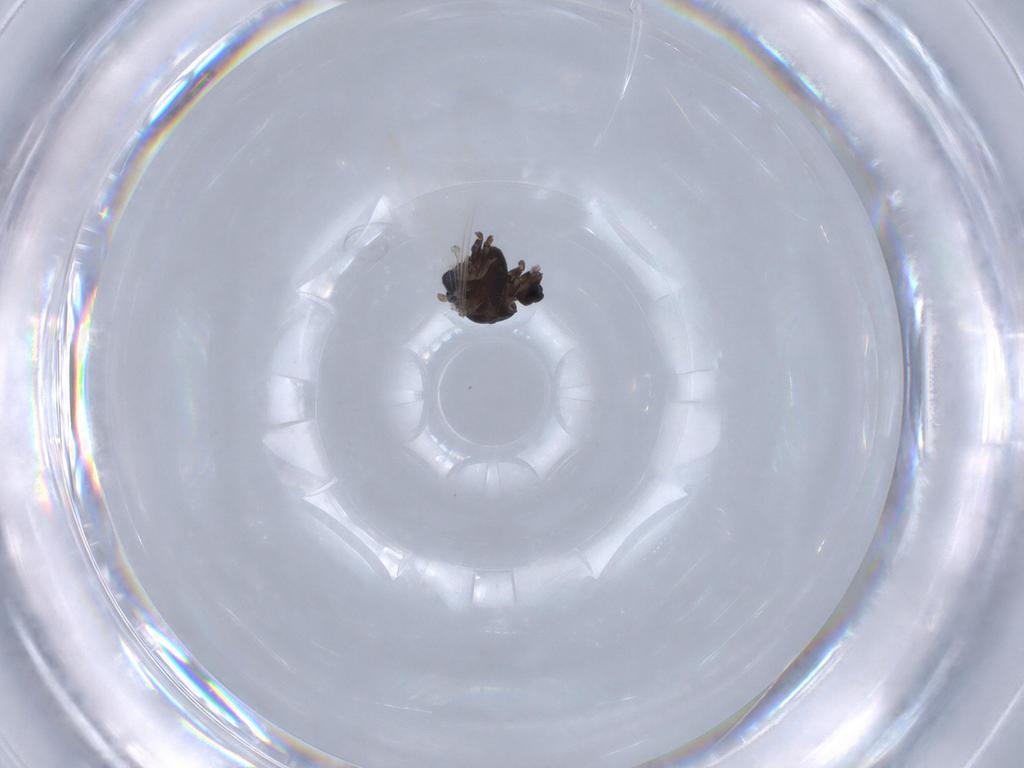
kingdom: Animalia
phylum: Arthropoda
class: Insecta
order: Diptera
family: Chironomidae
